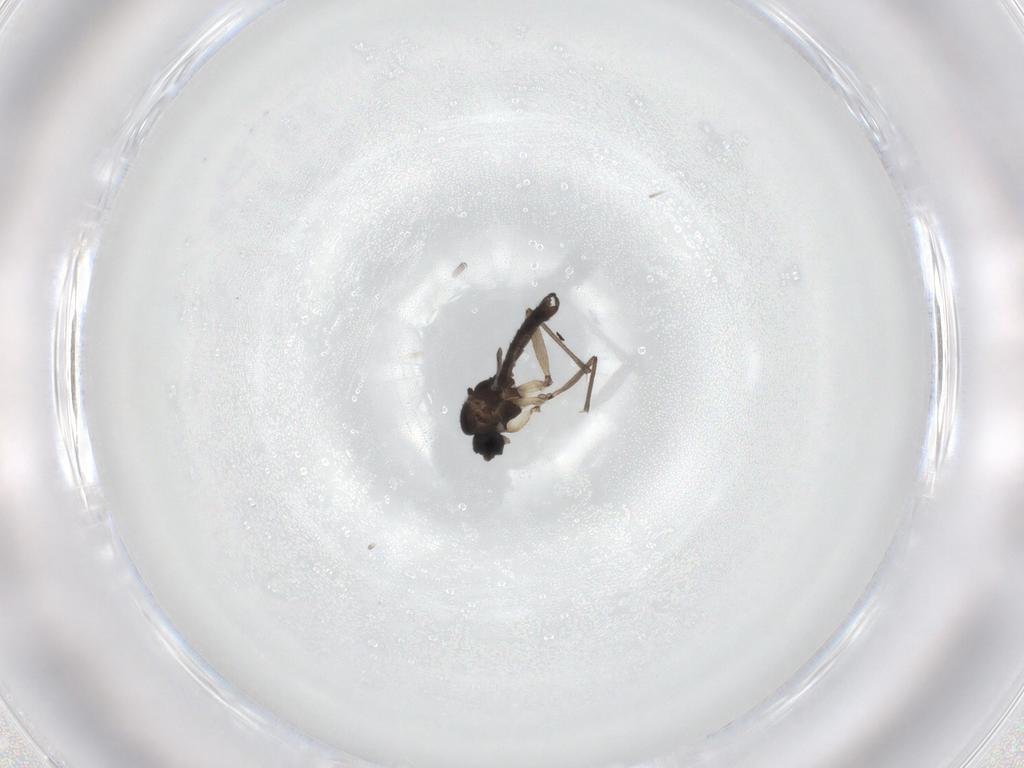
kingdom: Animalia
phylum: Arthropoda
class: Insecta
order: Diptera
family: Sciaridae
